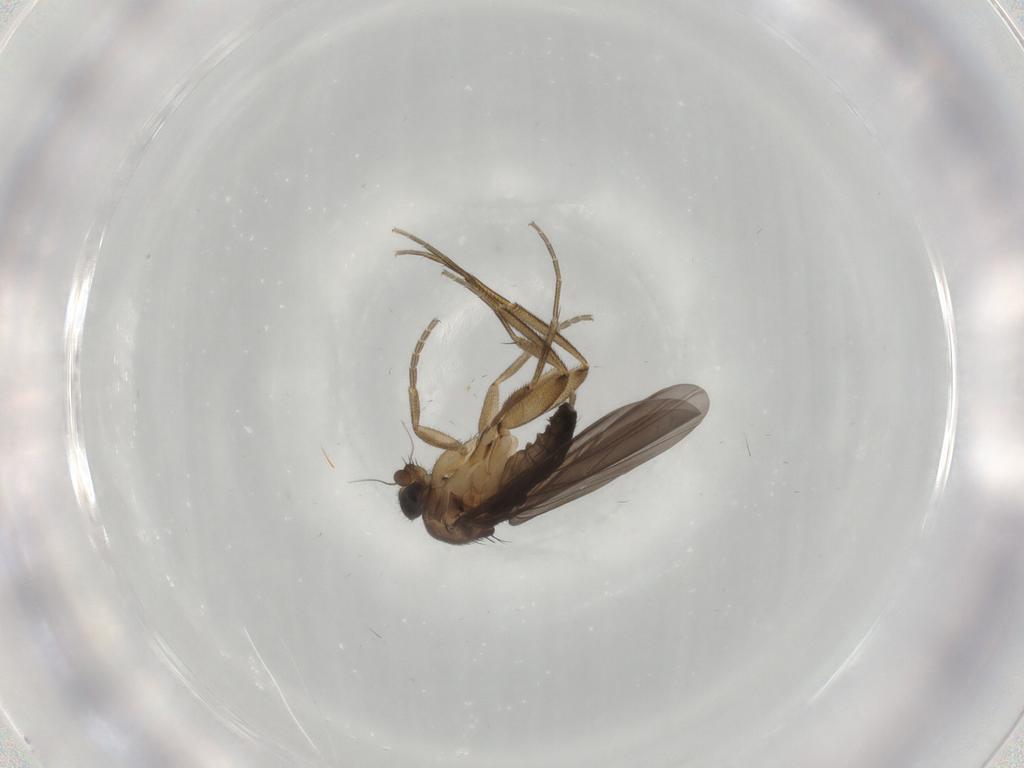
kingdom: Animalia
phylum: Arthropoda
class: Insecta
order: Diptera
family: Phoridae
